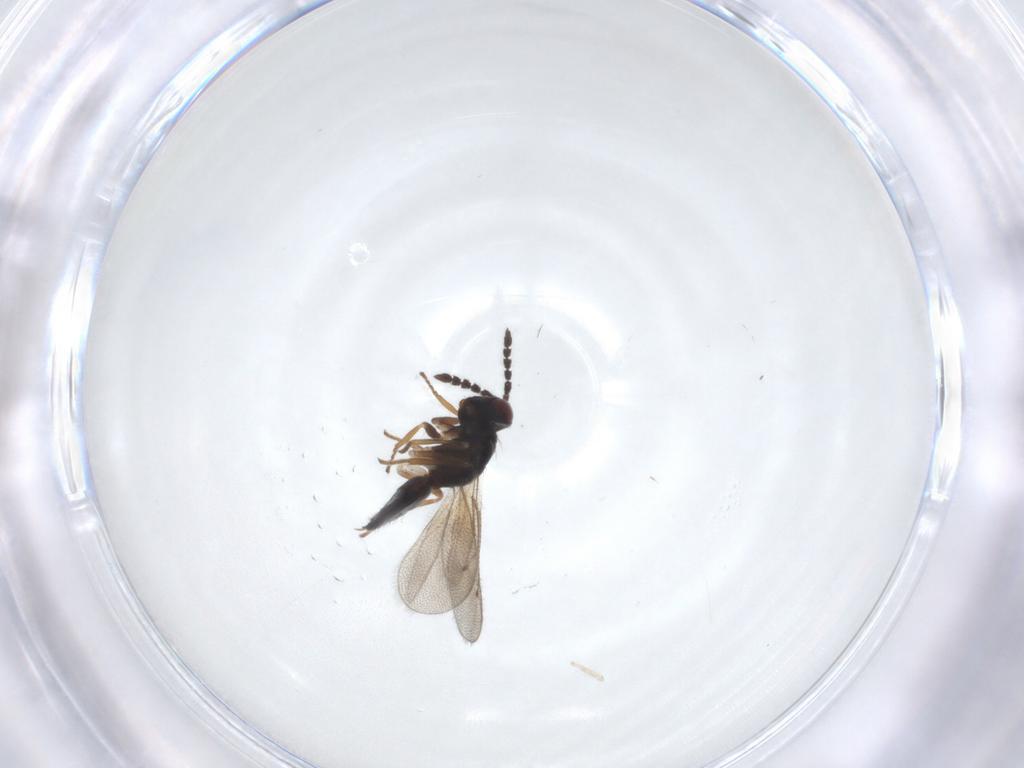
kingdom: Animalia
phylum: Arthropoda
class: Insecta
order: Hymenoptera
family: Eulophidae
